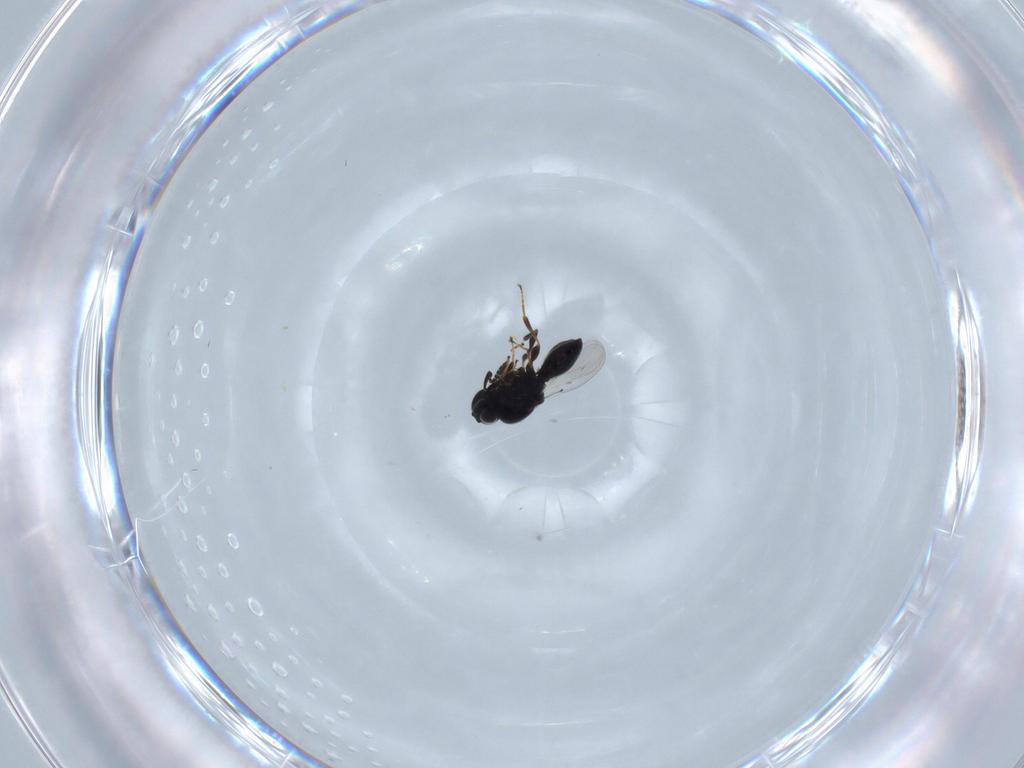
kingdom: Animalia
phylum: Arthropoda
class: Insecta
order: Hymenoptera
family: Platygastridae
